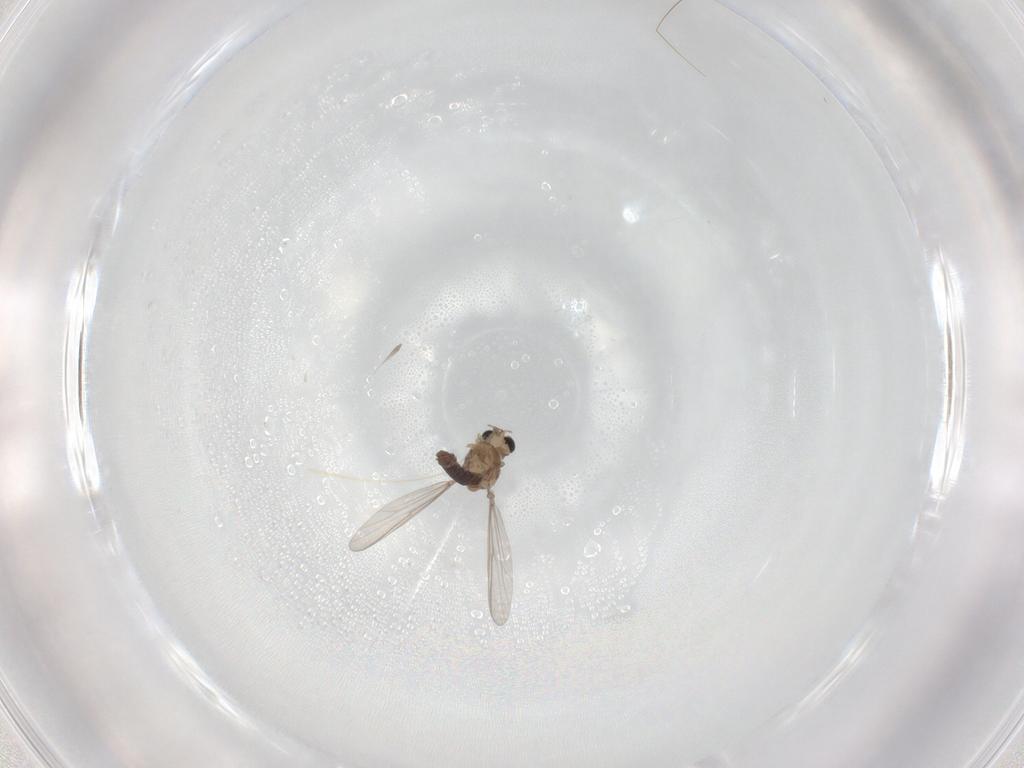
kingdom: Animalia
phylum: Arthropoda
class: Insecta
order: Diptera
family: Chironomidae
